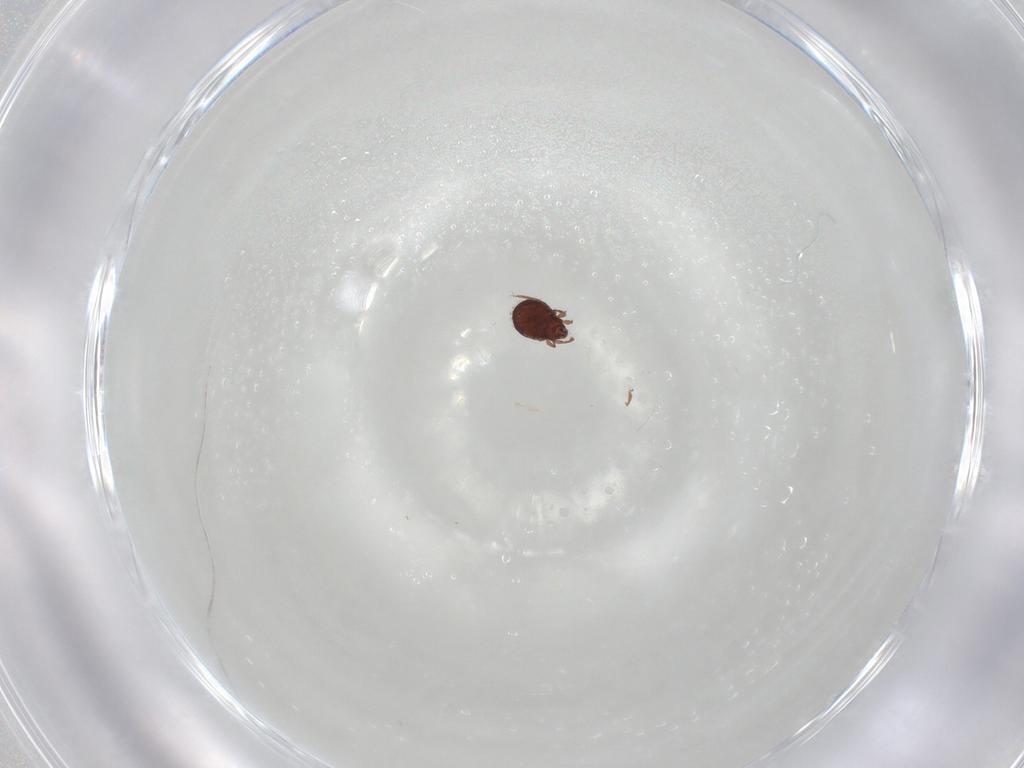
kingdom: Animalia
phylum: Arthropoda
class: Arachnida
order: Sarcoptiformes
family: Scheloribatidae
